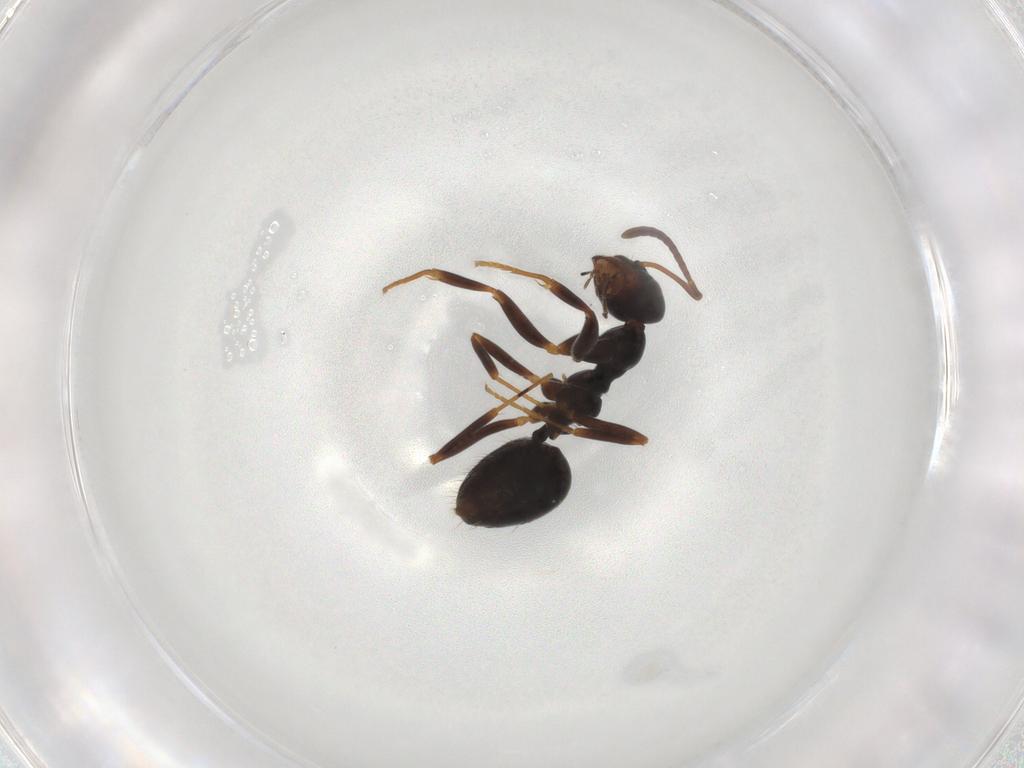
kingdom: Animalia
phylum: Arthropoda
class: Insecta
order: Hymenoptera
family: Formicidae
